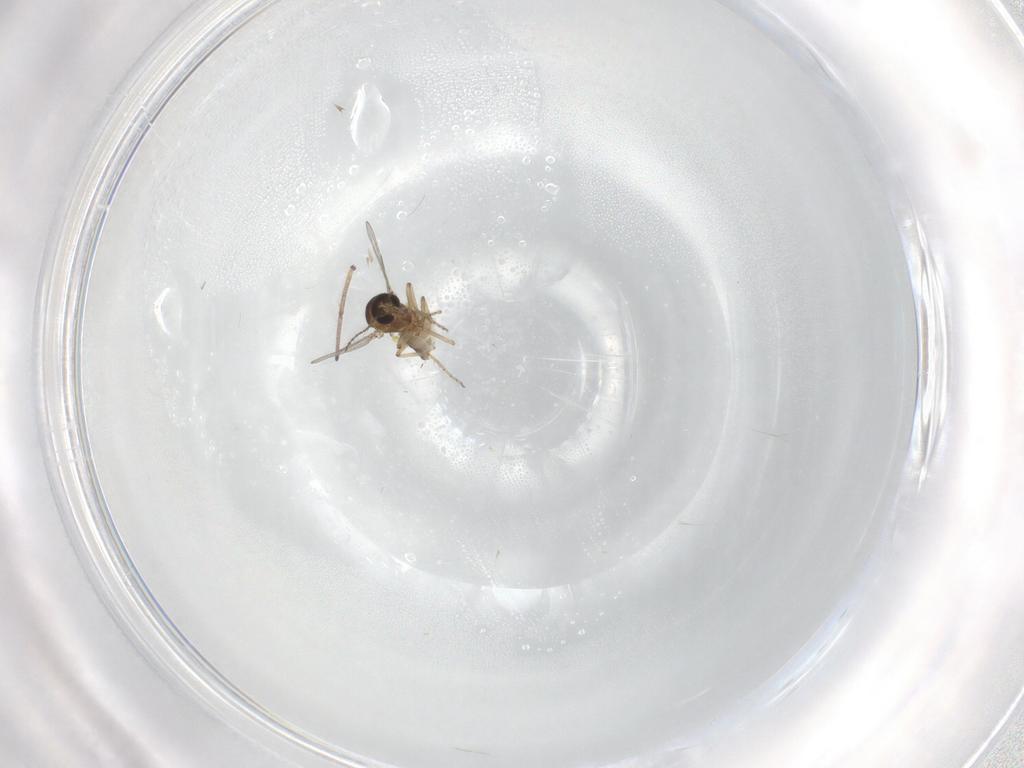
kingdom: Animalia
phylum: Arthropoda
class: Insecta
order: Diptera
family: Ceratopogonidae
